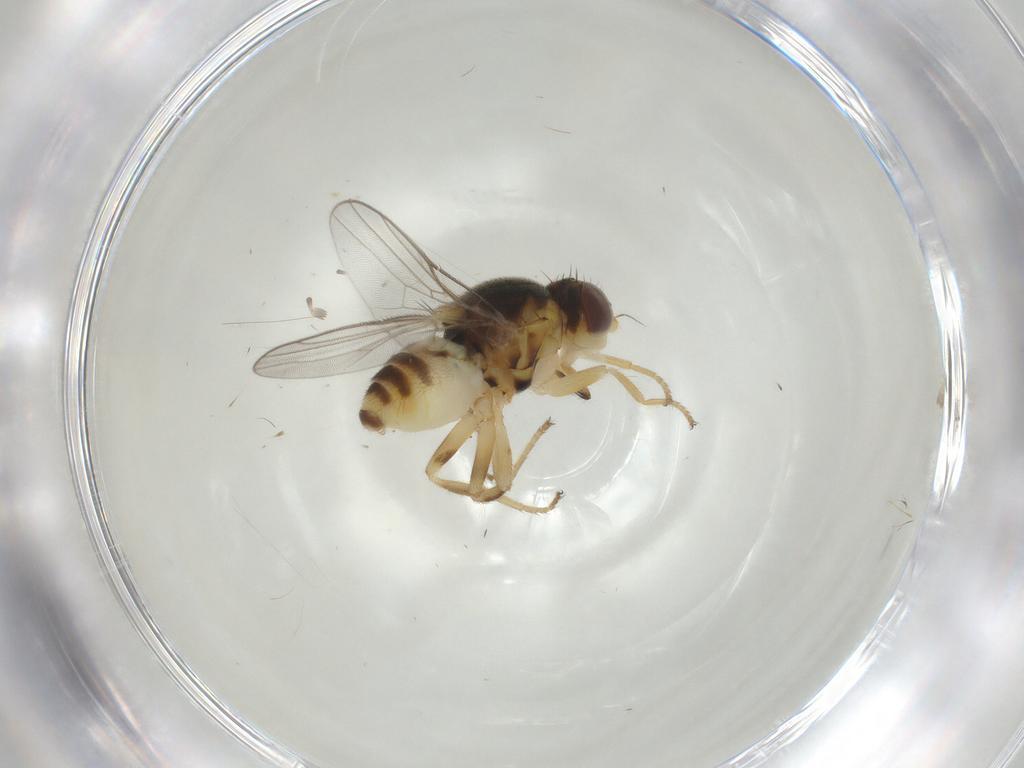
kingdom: Animalia
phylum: Arthropoda
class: Insecta
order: Diptera
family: Chloropidae
